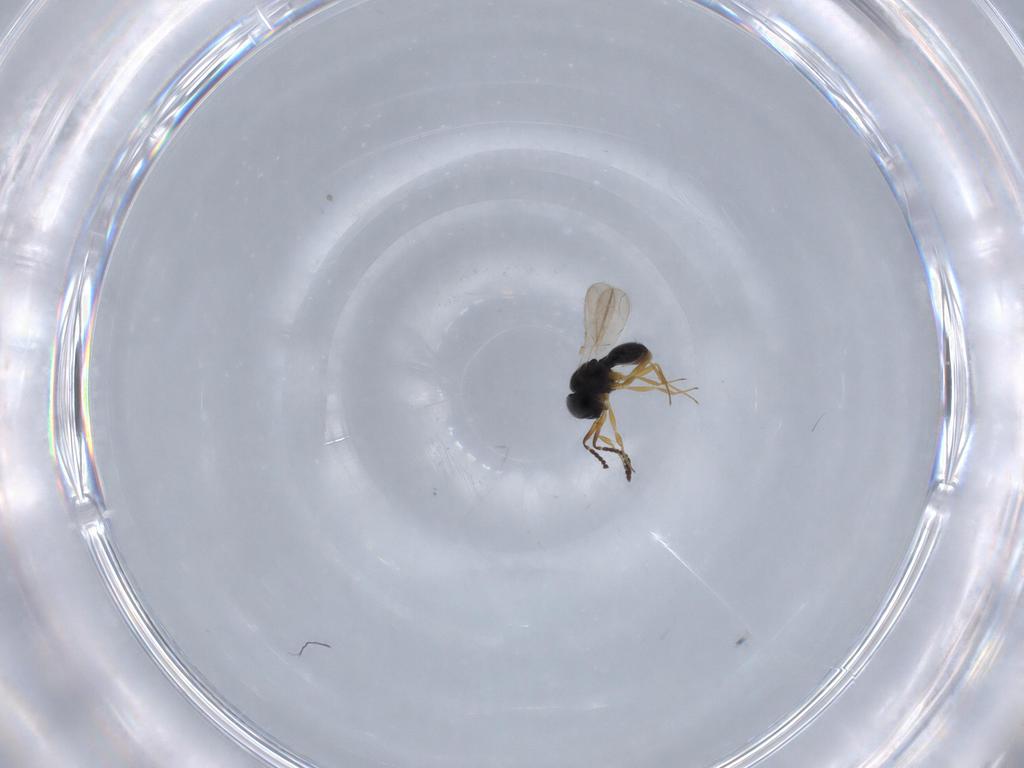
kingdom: Animalia
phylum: Arthropoda
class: Insecta
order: Hymenoptera
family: Scelionidae
